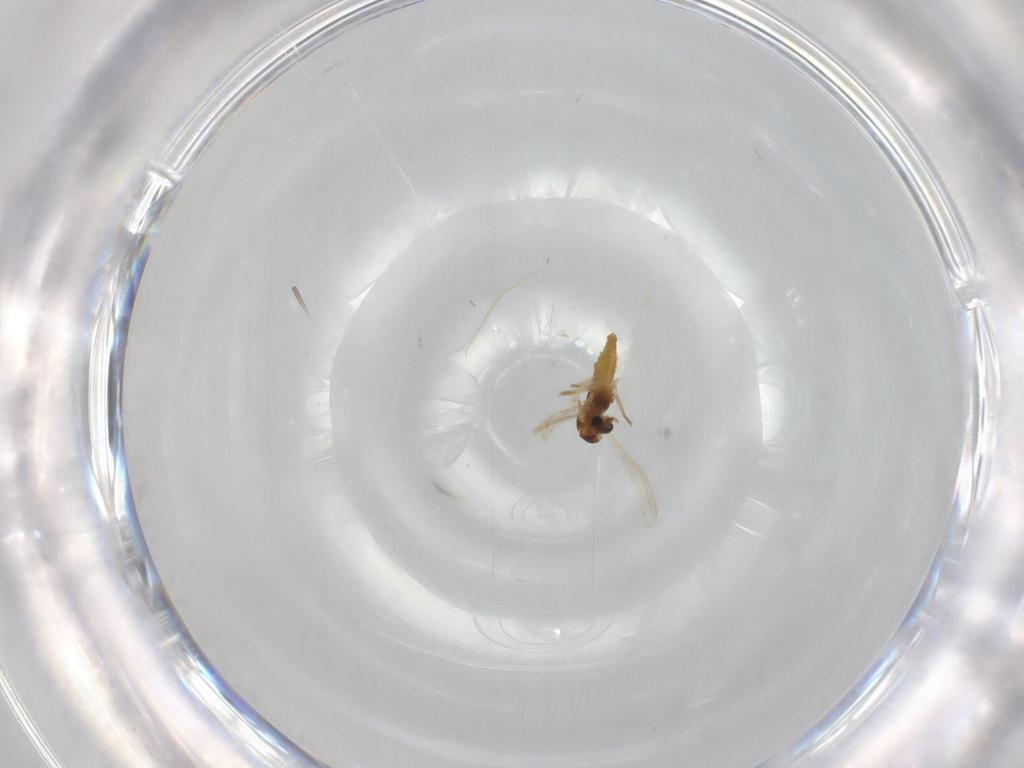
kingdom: Animalia
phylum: Arthropoda
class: Insecta
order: Diptera
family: Chironomidae
